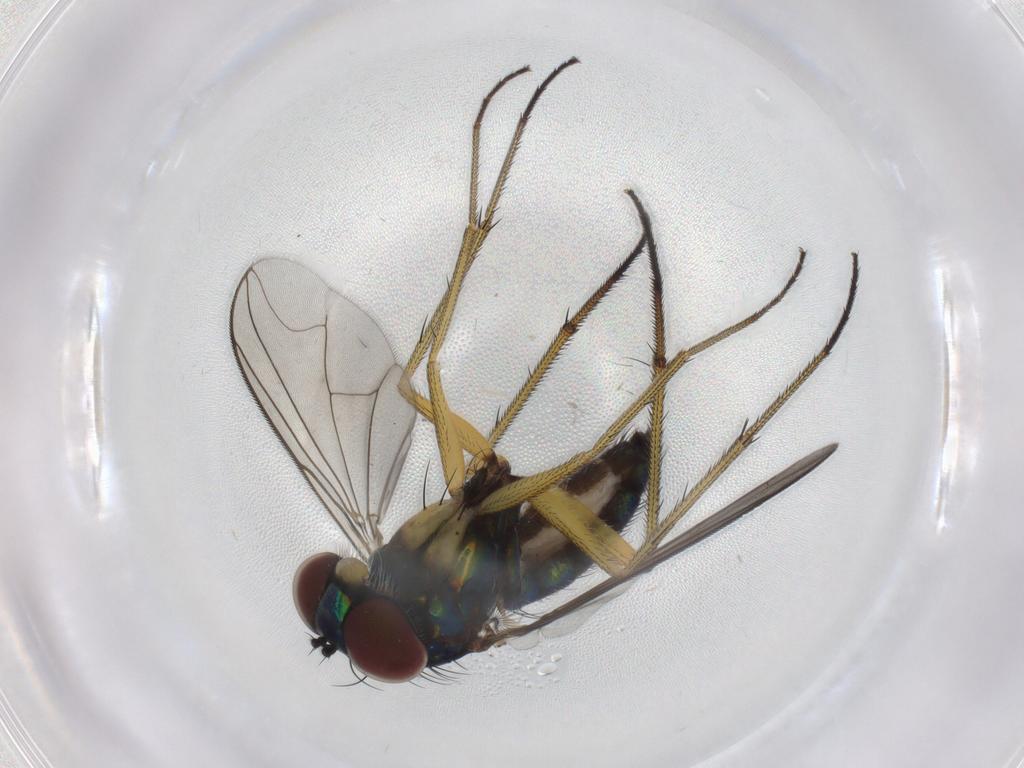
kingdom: Animalia
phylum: Arthropoda
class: Insecta
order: Diptera
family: Dolichopodidae
